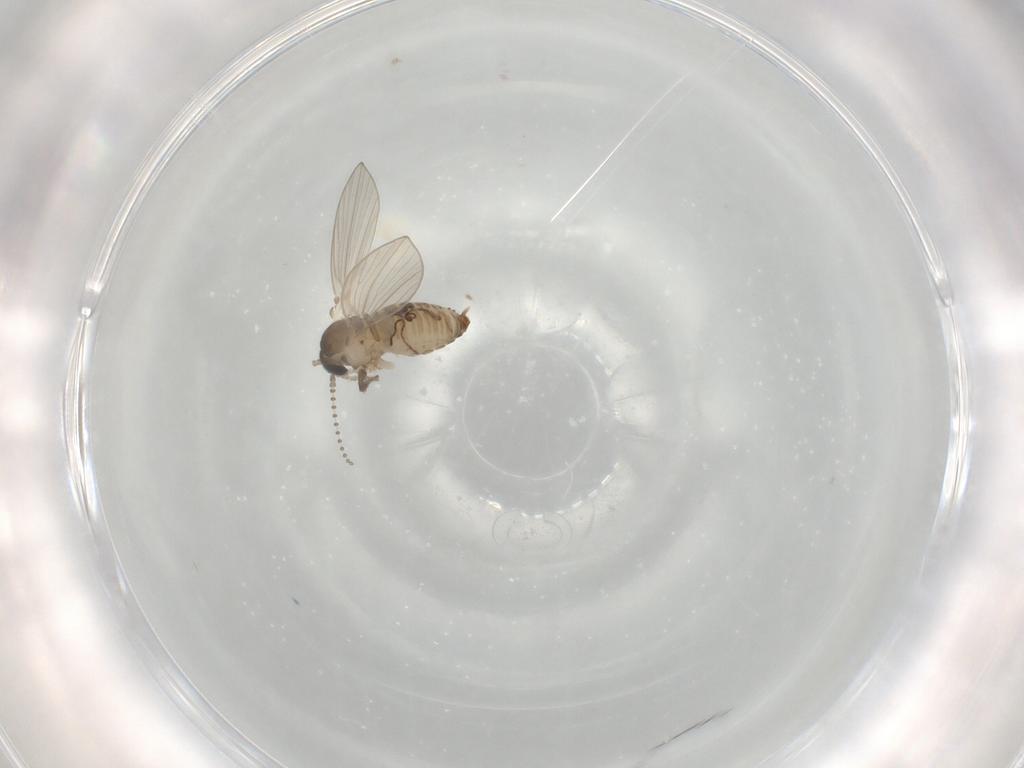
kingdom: Animalia
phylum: Arthropoda
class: Insecta
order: Diptera
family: Psychodidae
